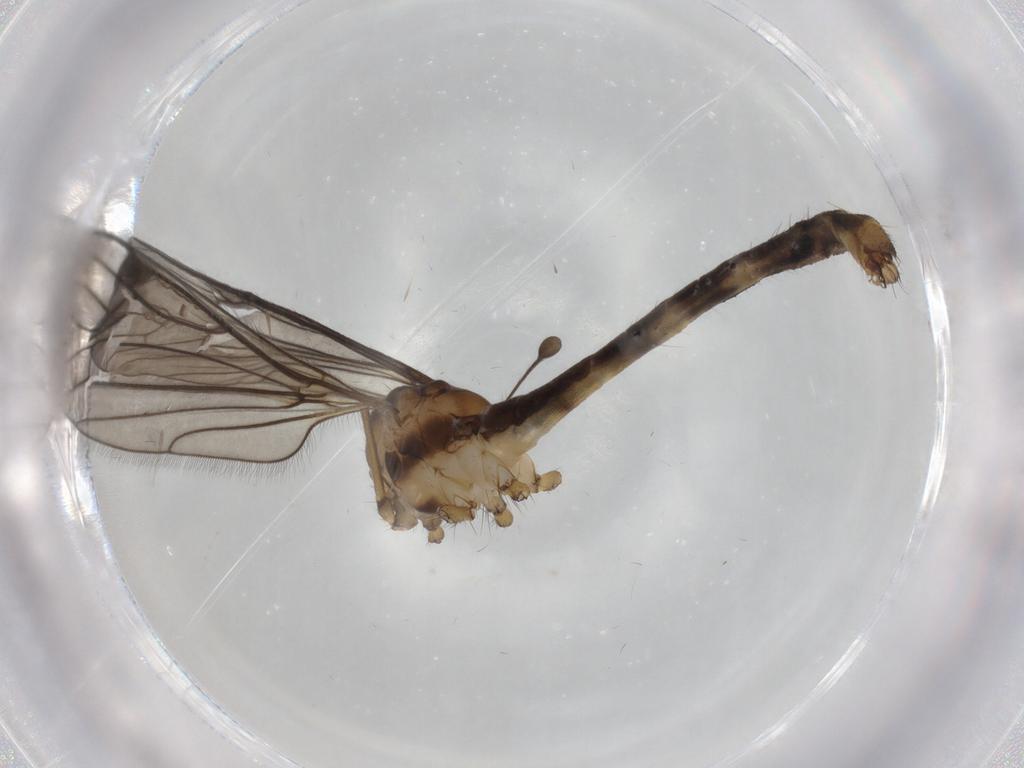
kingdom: Animalia
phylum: Arthropoda
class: Insecta
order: Diptera
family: Limoniidae
